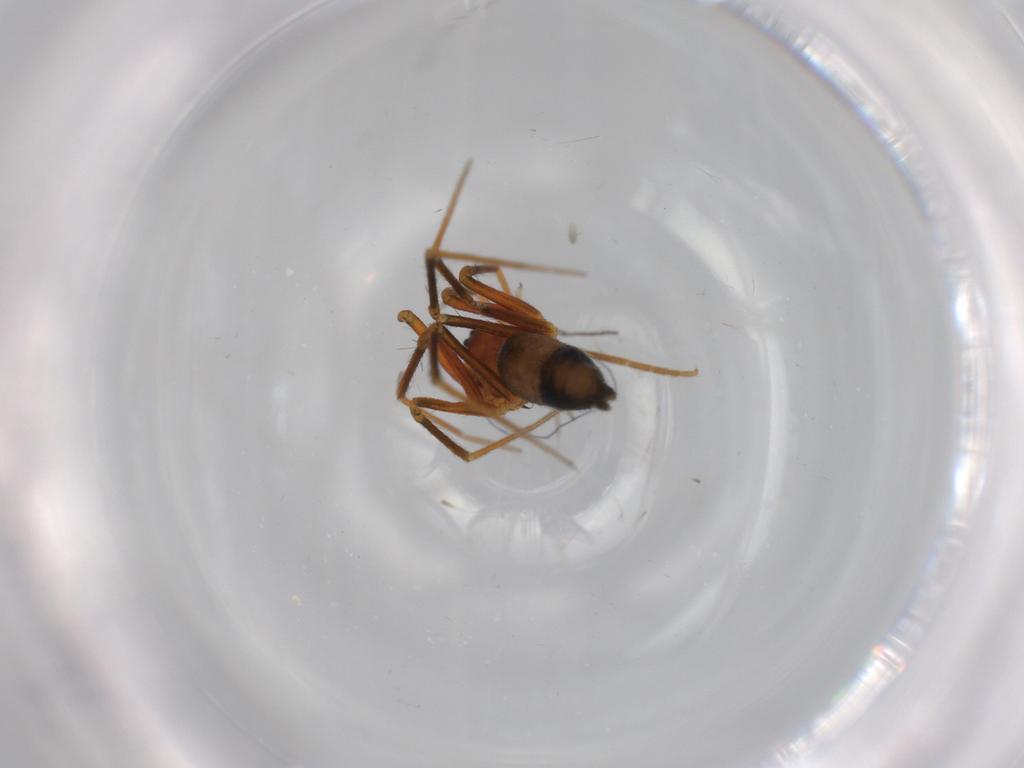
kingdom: Animalia
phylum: Arthropoda
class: Arachnida
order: Araneae
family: Linyphiidae
